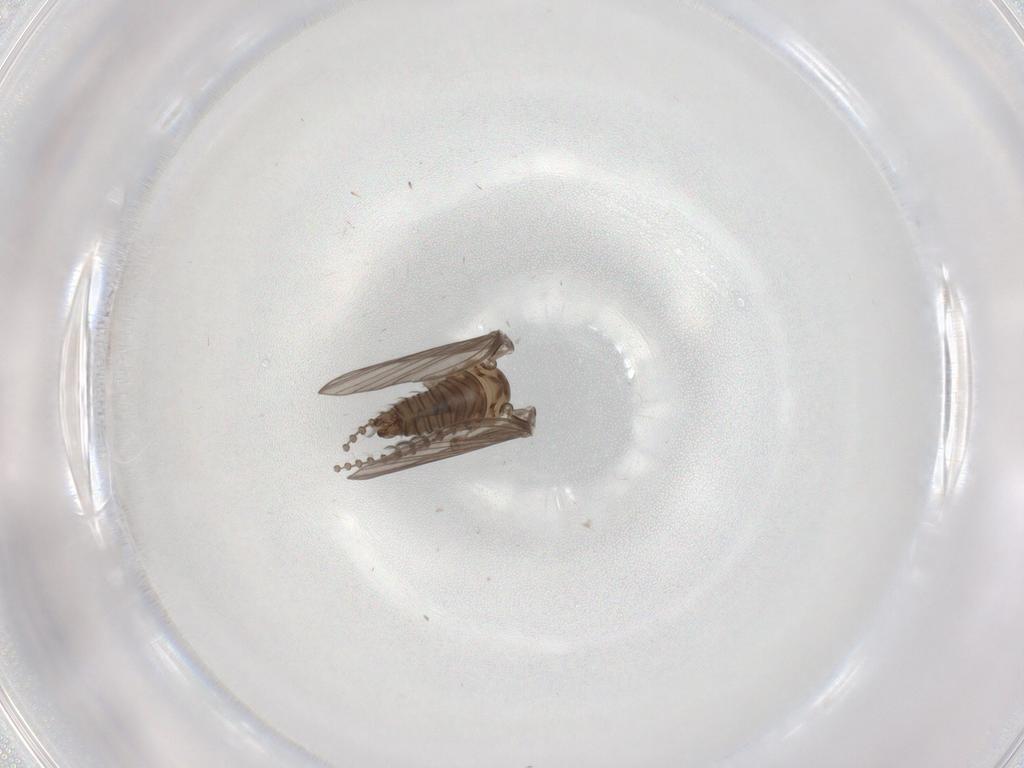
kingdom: Animalia
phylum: Arthropoda
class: Insecta
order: Diptera
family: Psychodidae
